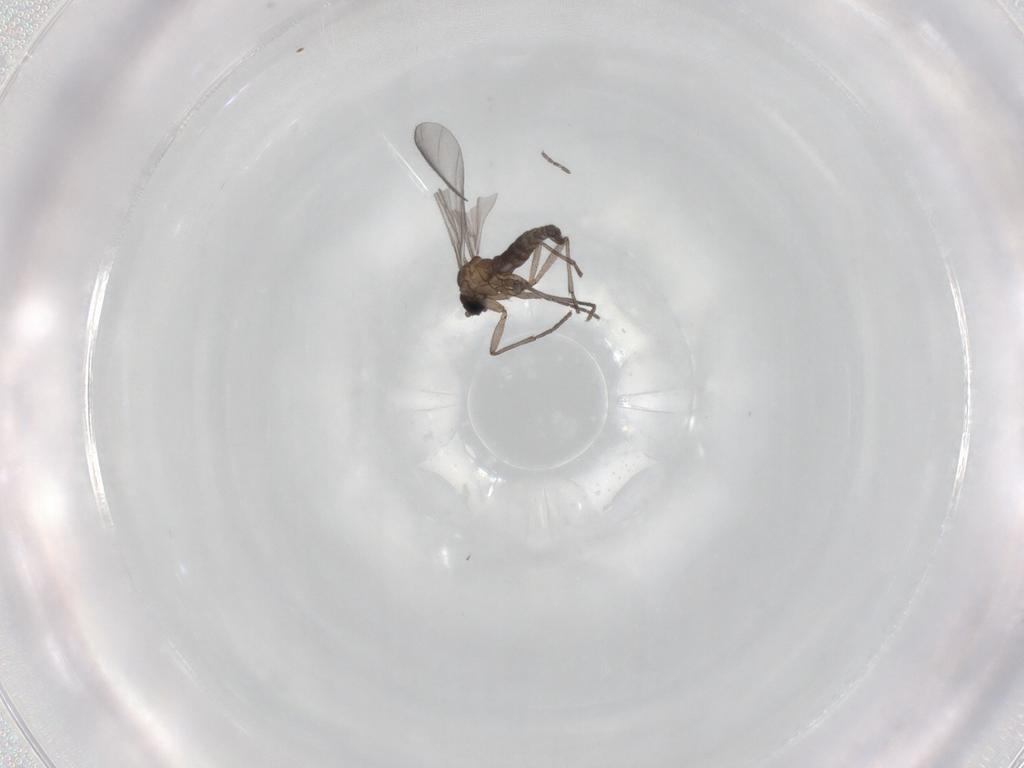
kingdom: Animalia
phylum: Arthropoda
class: Insecta
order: Diptera
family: Sciaridae
